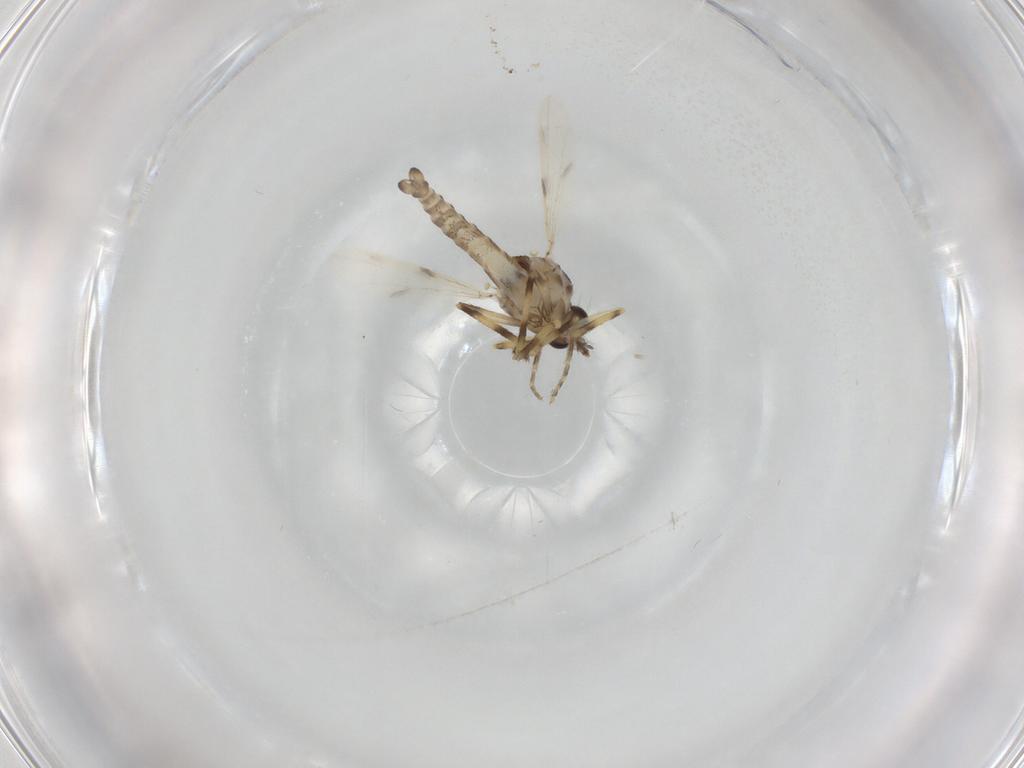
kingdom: Animalia
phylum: Arthropoda
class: Insecta
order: Diptera
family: Ceratopogonidae
